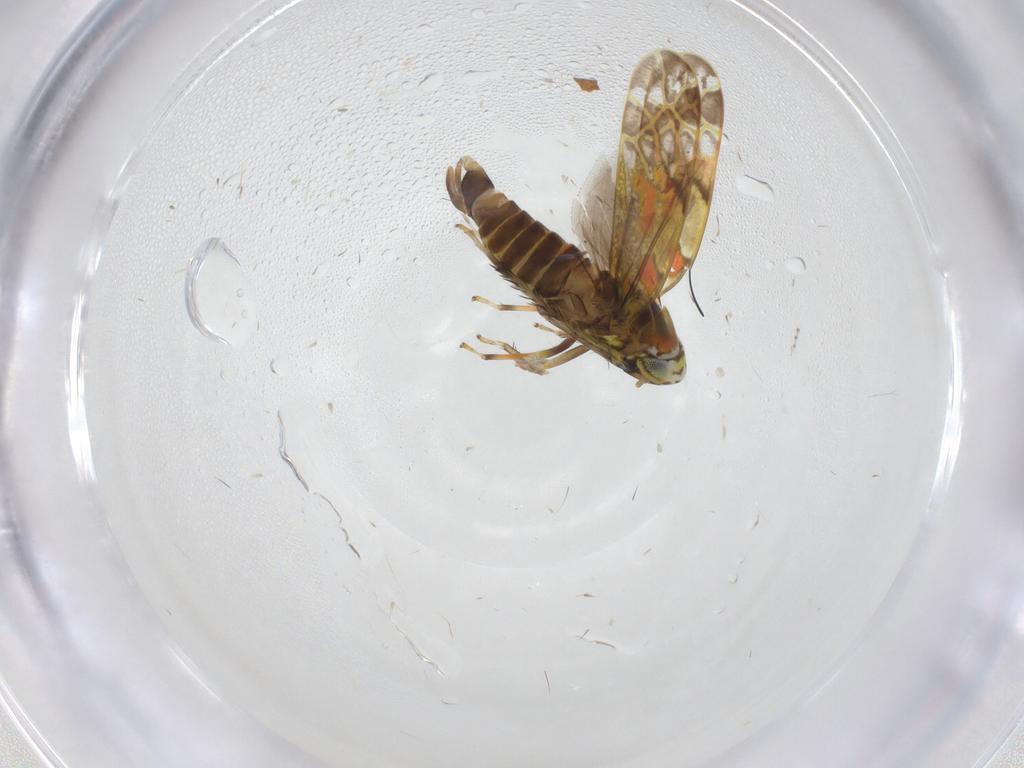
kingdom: Animalia
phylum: Arthropoda
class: Insecta
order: Hemiptera
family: Cicadellidae
